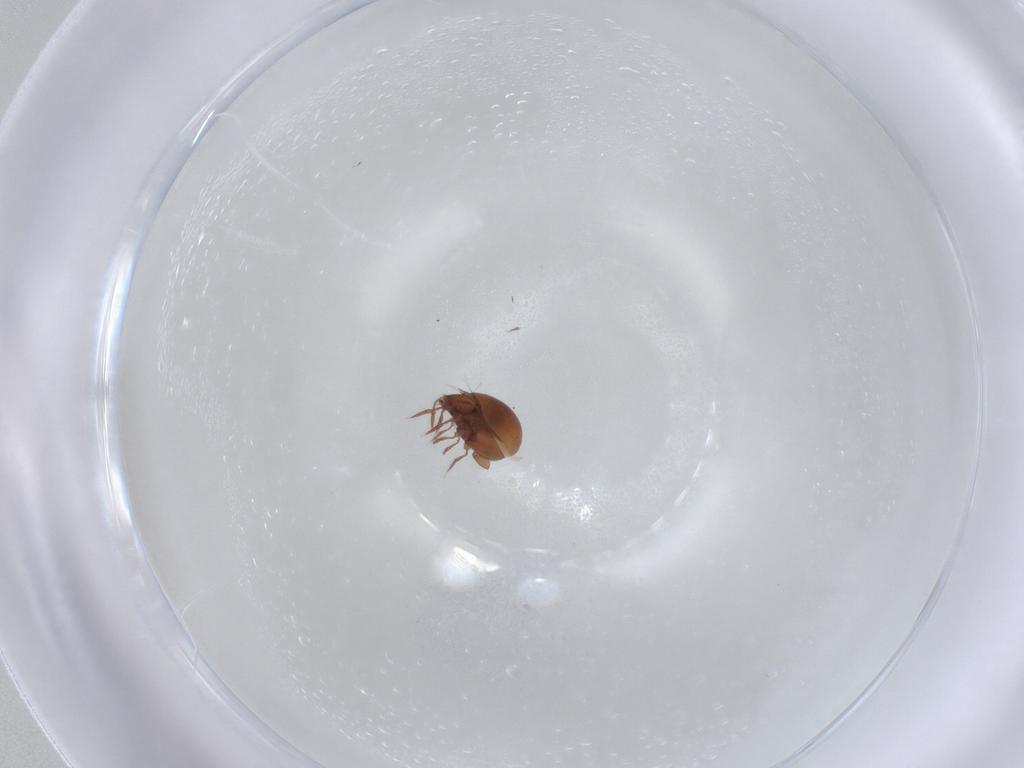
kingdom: Animalia
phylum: Arthropoda
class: Arachnida
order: Sarcoptiformes
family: Ceratozetidae
